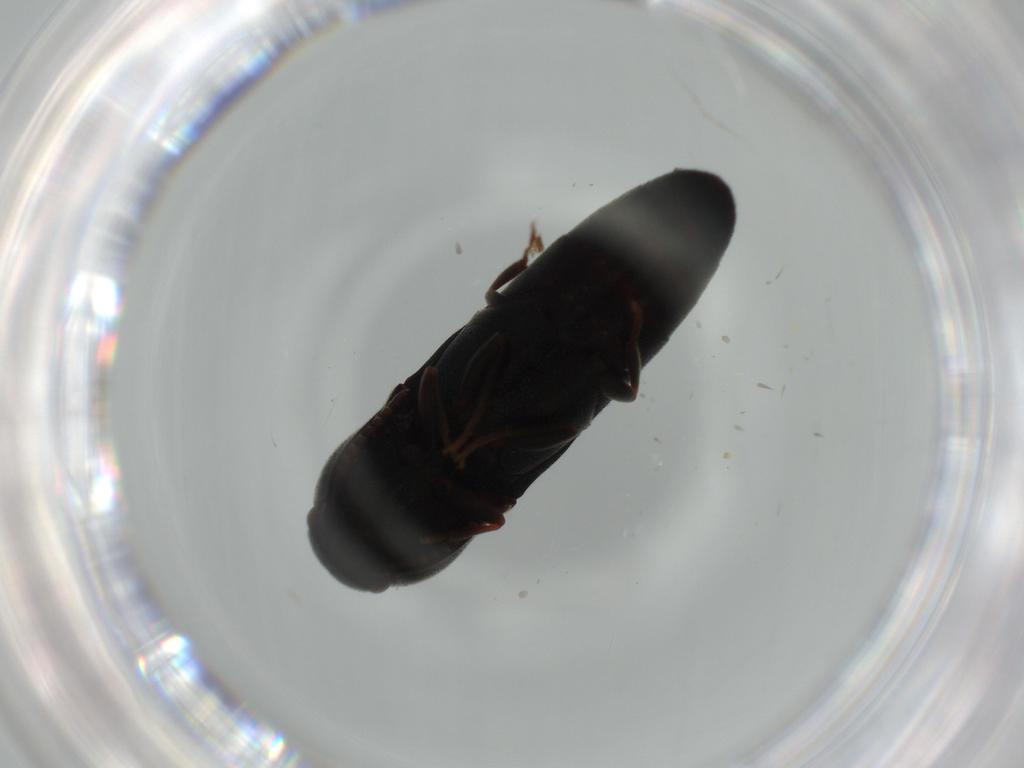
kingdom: Animalia
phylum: Arthropoda
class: Insecta
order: Coleoptera
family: Eucnemidae
